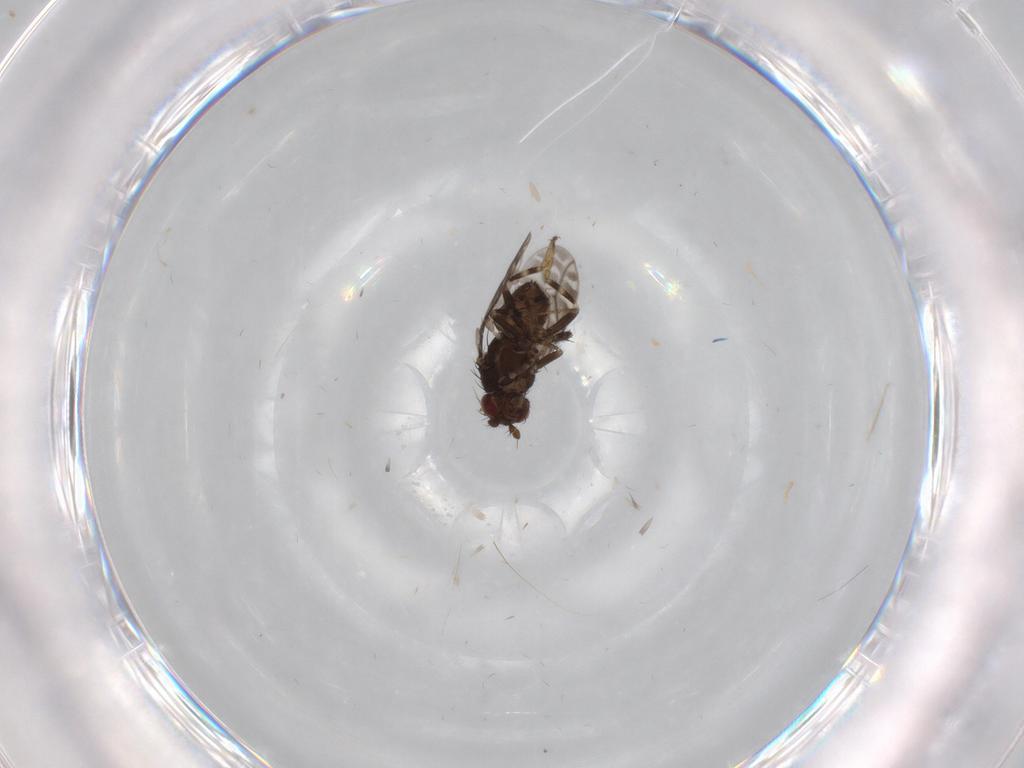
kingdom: Animalia
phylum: Arthropoda
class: Insecta
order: Diptera
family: Sphaeroceridae
